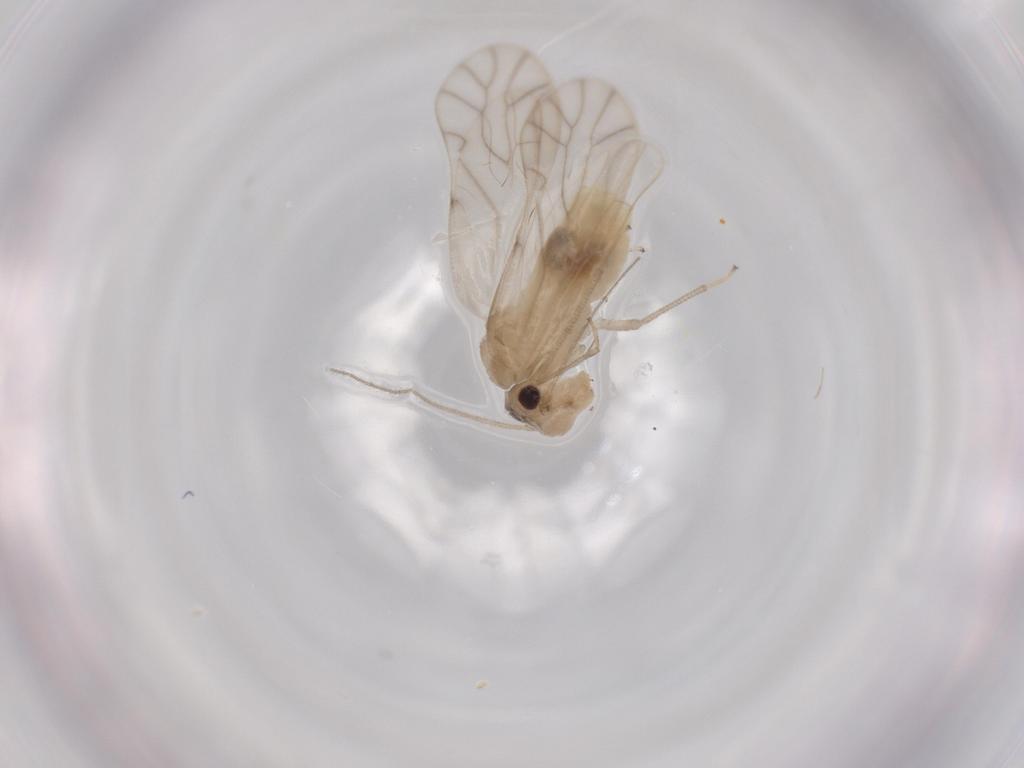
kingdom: Animalia
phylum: Arthropoda
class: Insecta
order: Psocodea
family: Caeciliusidae
